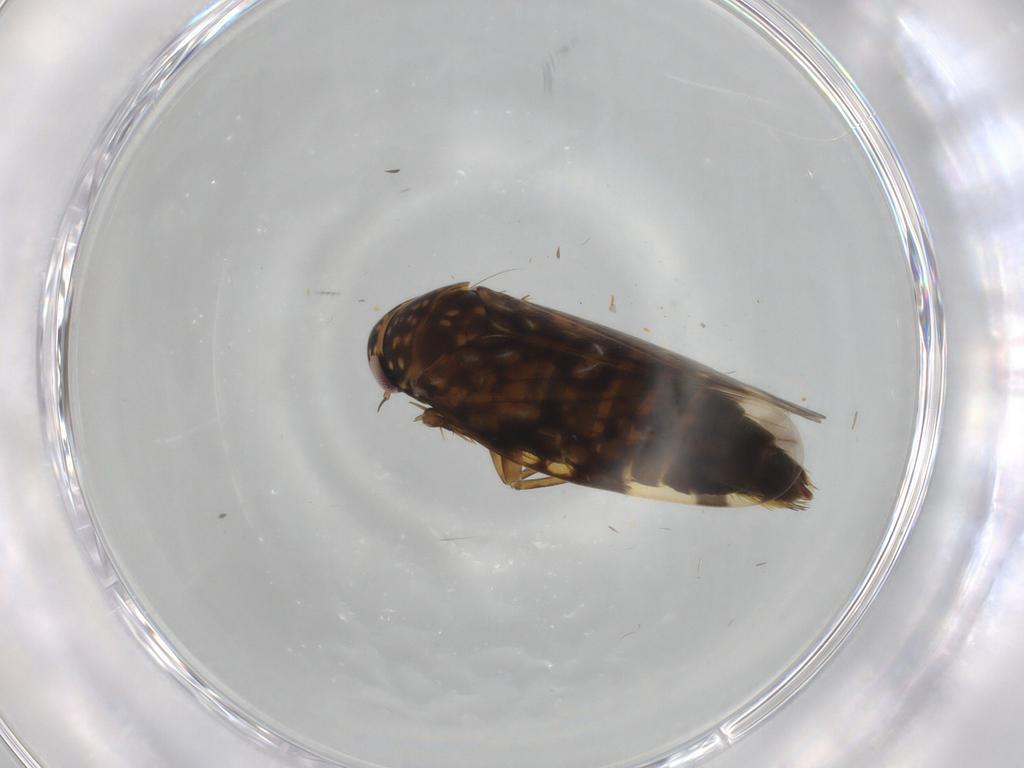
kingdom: Animalia
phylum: Arthropoda
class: Insecta
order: Hemiptera
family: Cicadellidae
